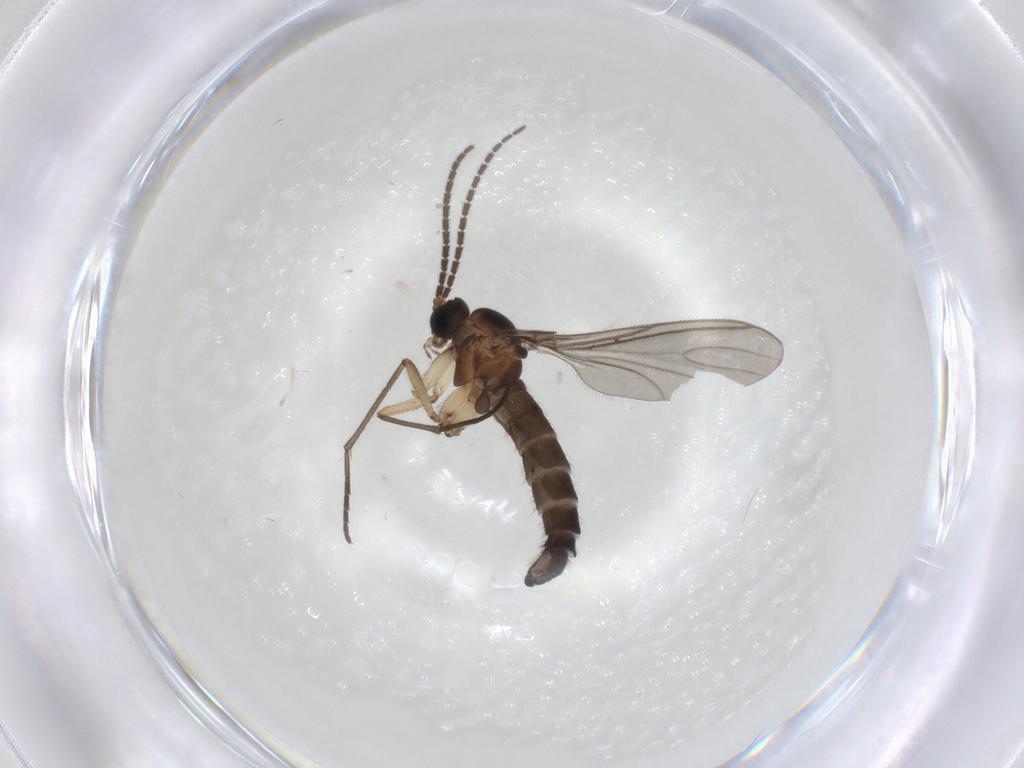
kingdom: Animalia
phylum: Arthropoda
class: Insecta
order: Diptera
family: Sciaridae
